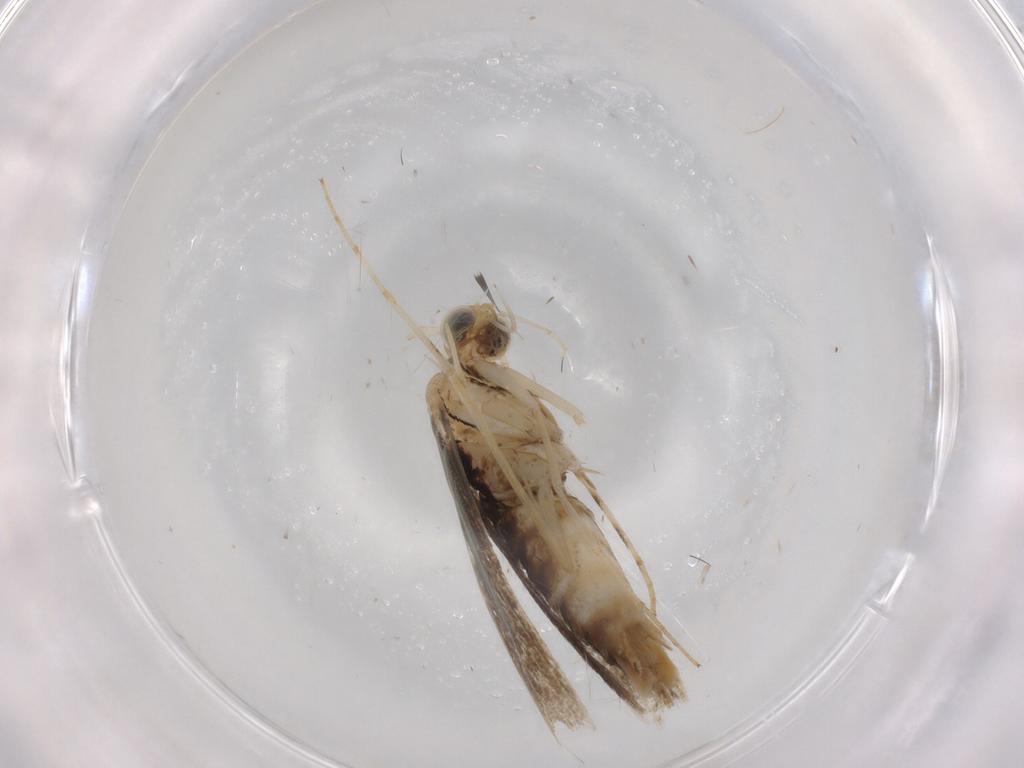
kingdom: Animalia
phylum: Arthropoda
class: Insecta
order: Lepidoptera
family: Gracillariidae
